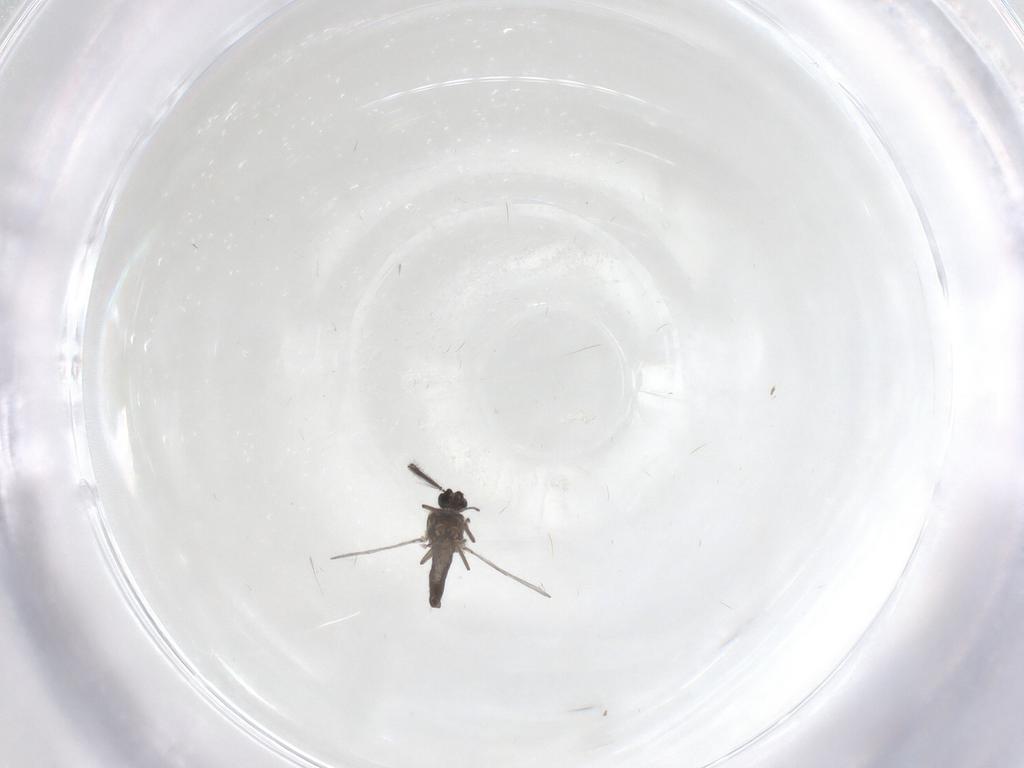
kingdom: Animalia
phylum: Arthropoda
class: Insecta
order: Diptera
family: Ceratopogonidae
